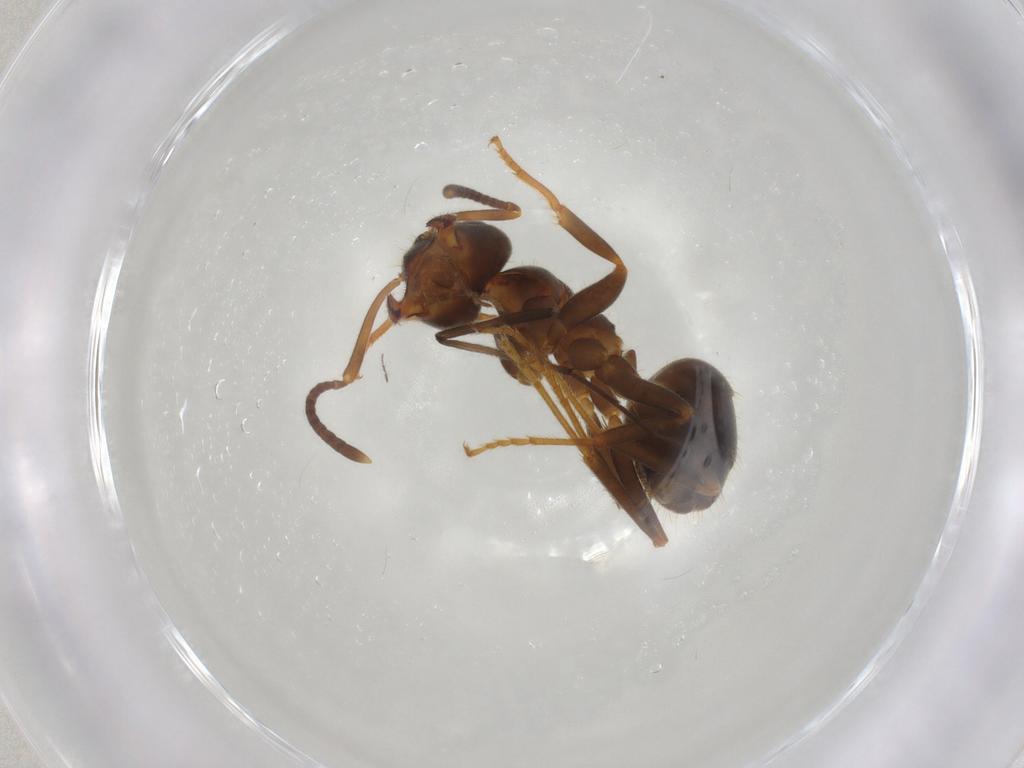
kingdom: Animalia
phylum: Arthropoda
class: Insecta
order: Hymenoptera
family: Formicidae
